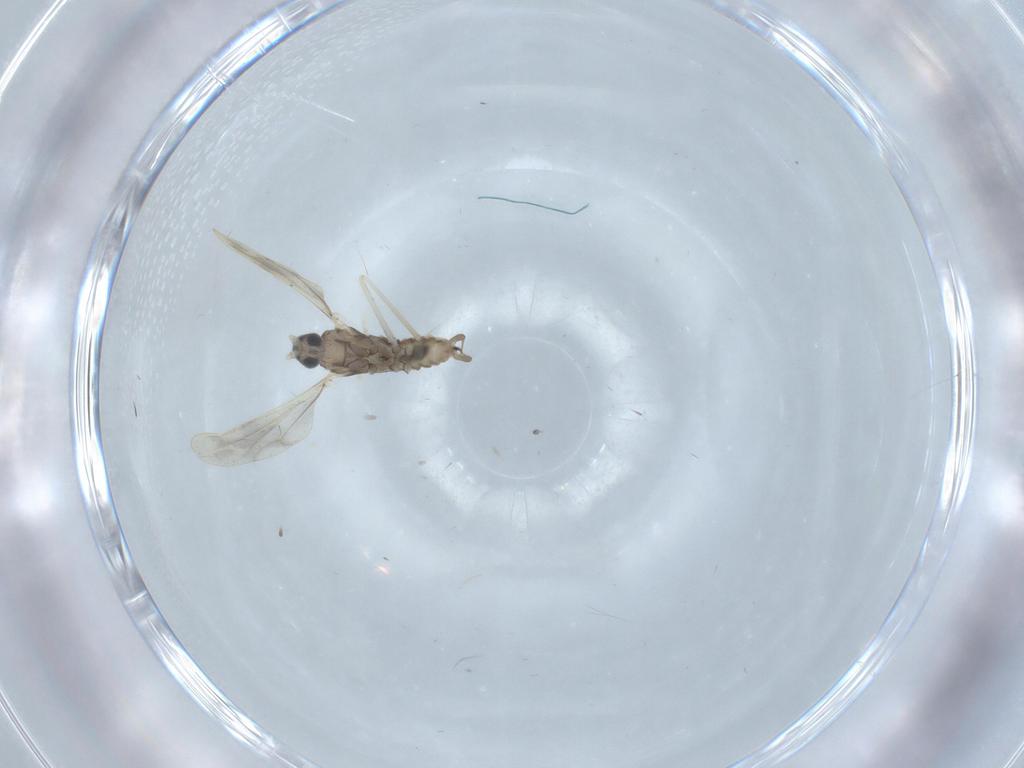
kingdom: Animalia
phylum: Arthropoda
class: Insecta
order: Diptera
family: Cecidomyiidae
